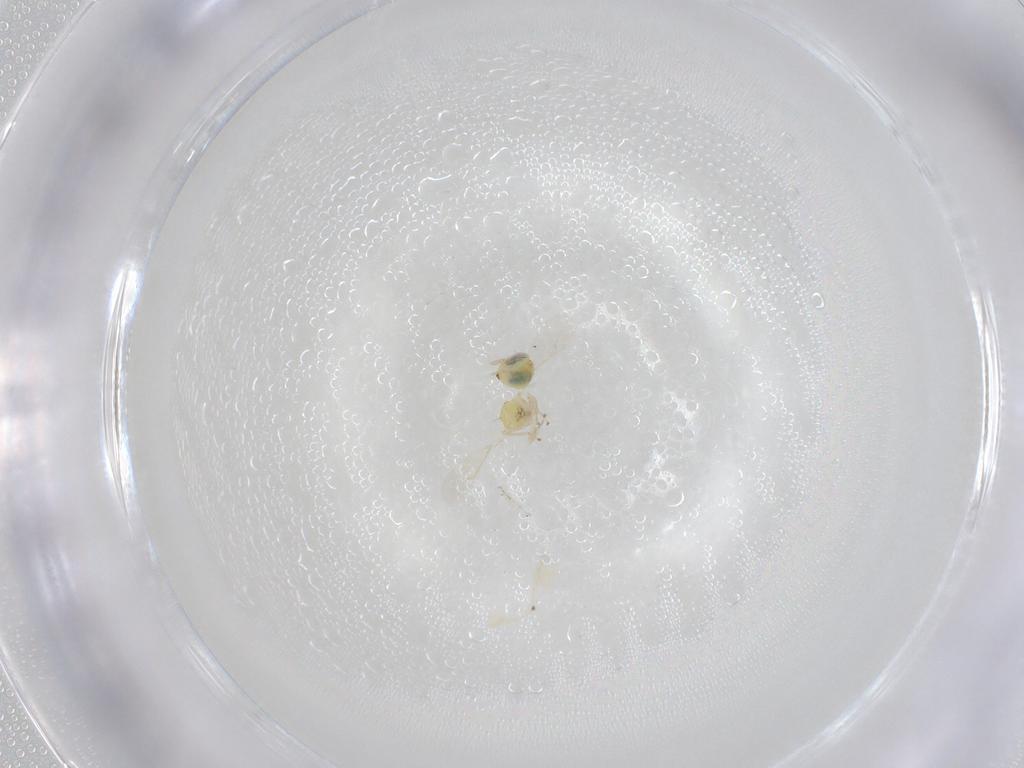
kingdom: Animalia
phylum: Arthropoda
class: Insecta
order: Hymenoptera
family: Eulophidae
